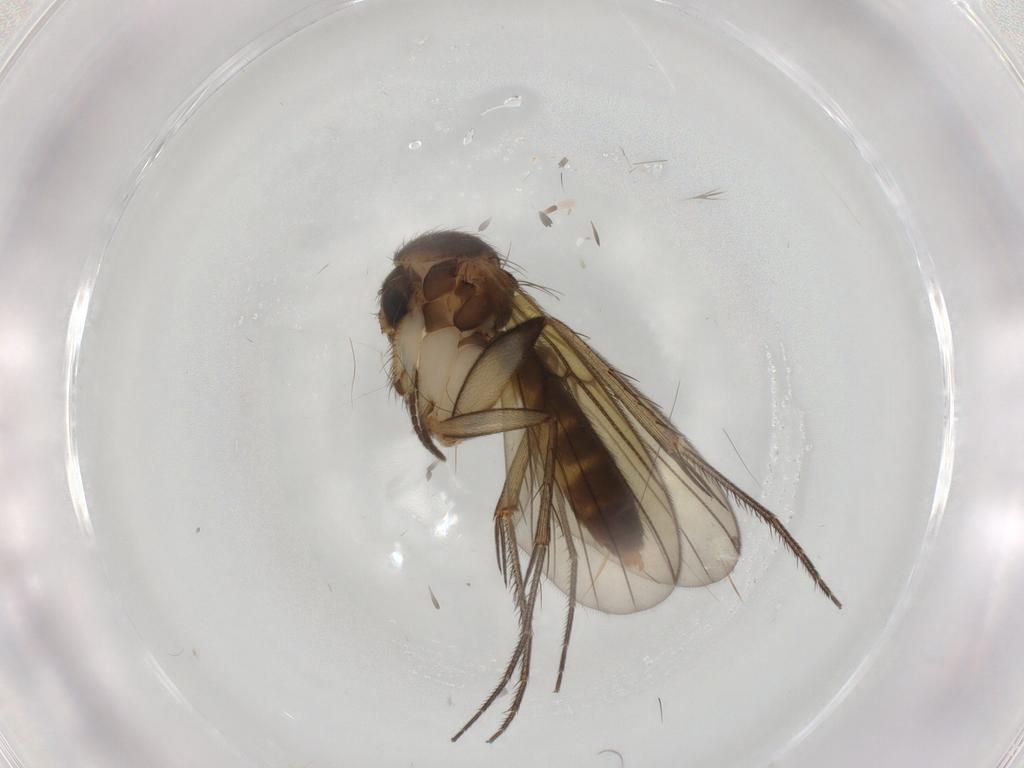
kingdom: Animalia
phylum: Arthropoda
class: Insecta
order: Diptera
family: Mycetophilidae
